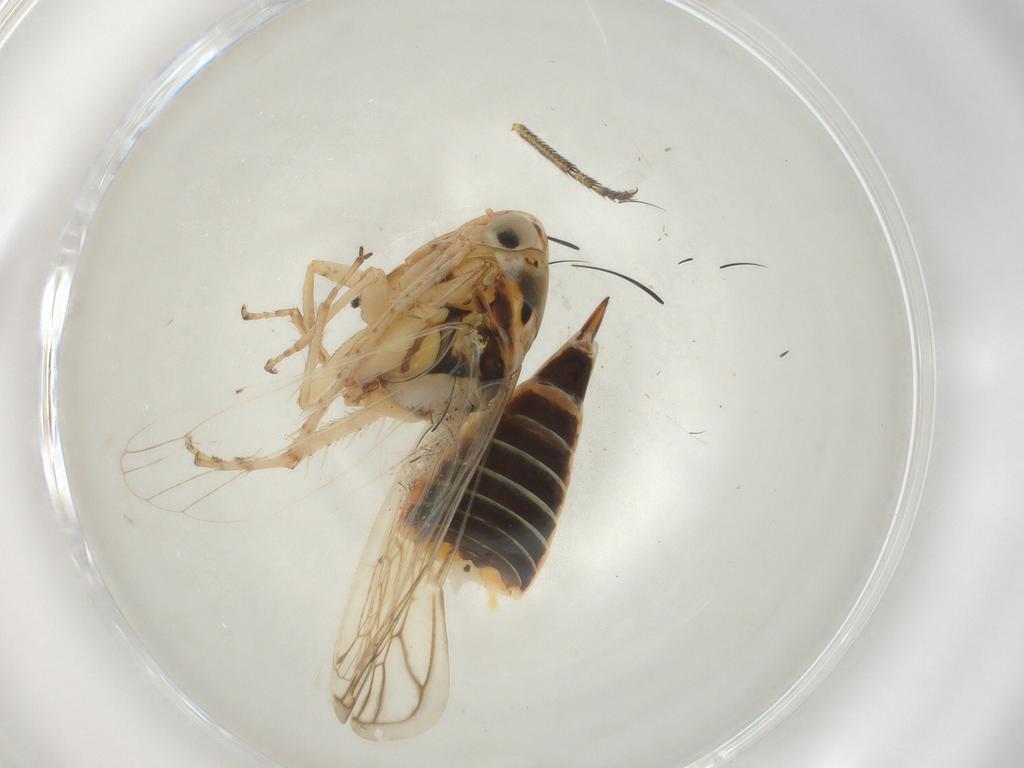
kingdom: Animalia
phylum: Arthropoda
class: Insecta
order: Hemiptera
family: Cicadellidae
